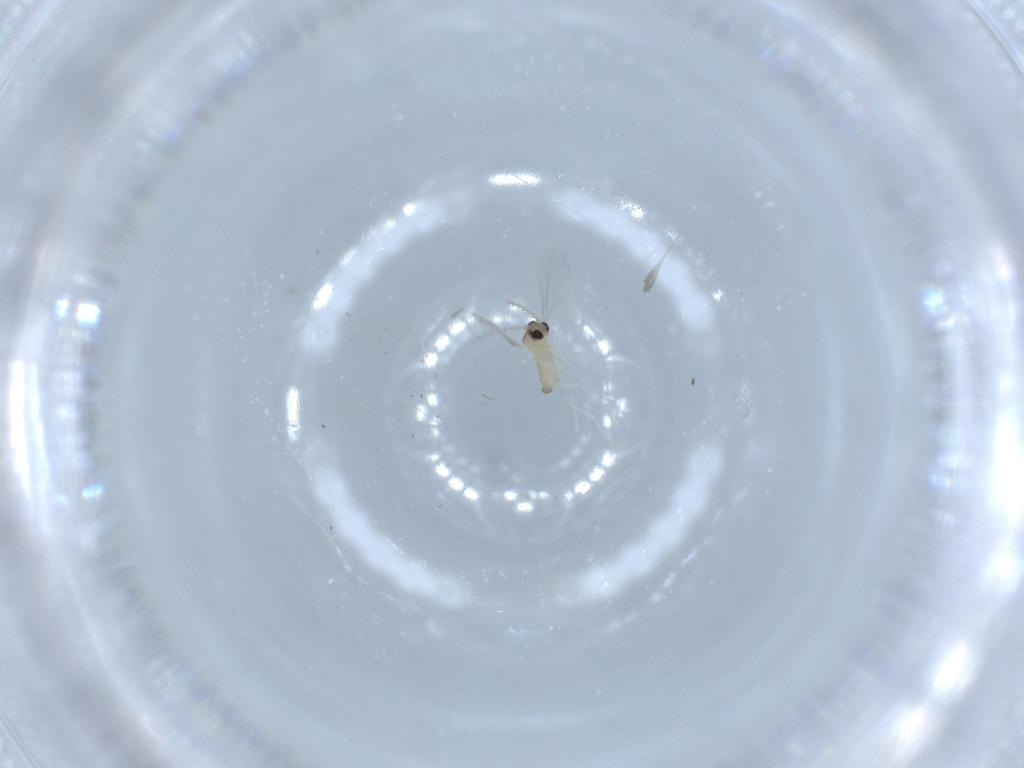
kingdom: Animalia
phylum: Arthropoda
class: Insecta
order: Diptera
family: Cecidomyiidae
